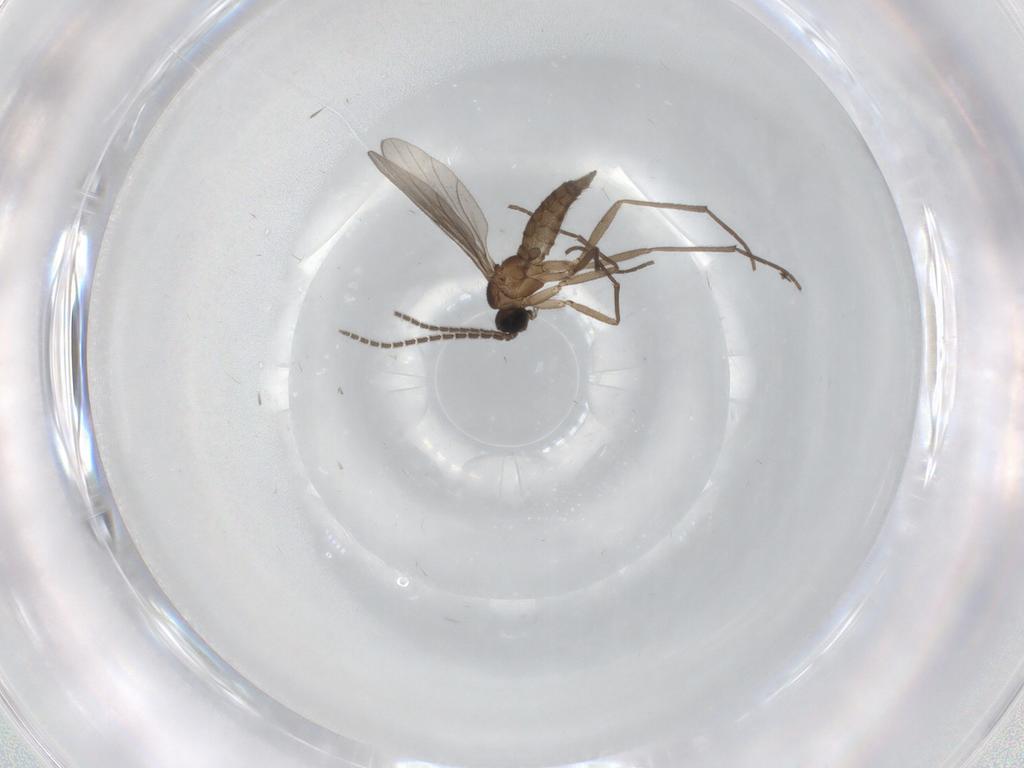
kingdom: Animalia
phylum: Arthropoda
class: Insecta
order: Diptera
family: Sciaridae
